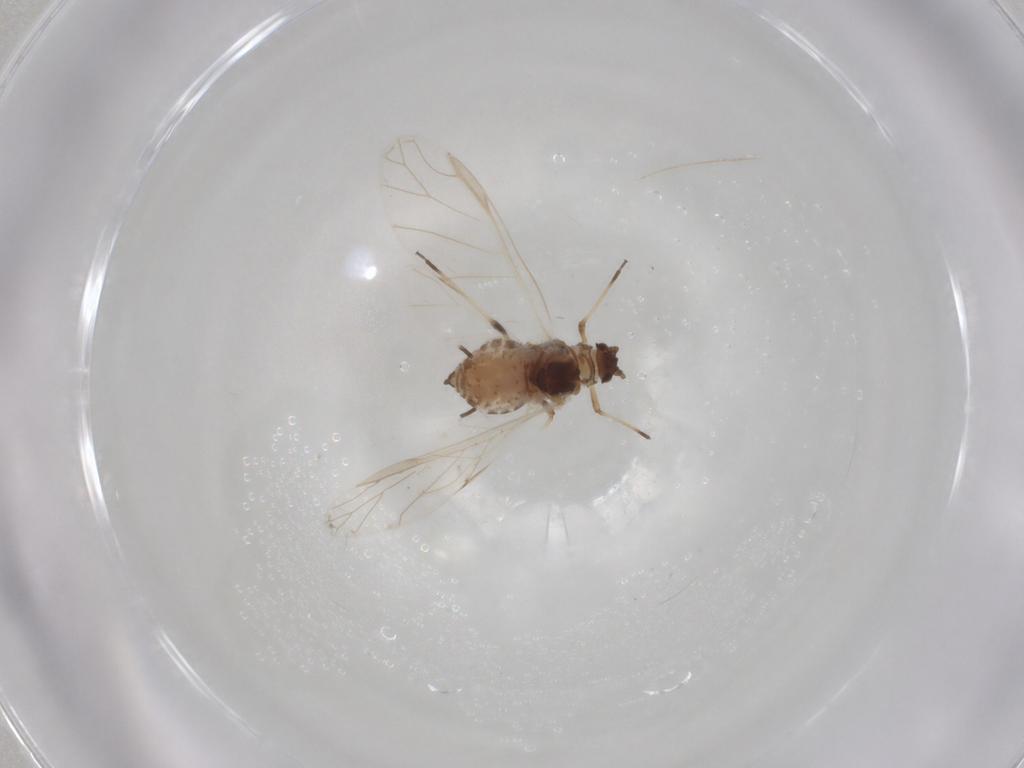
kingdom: Animalia
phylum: Arthropoda
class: Insecta
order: Hemiptera
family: Aphididae
